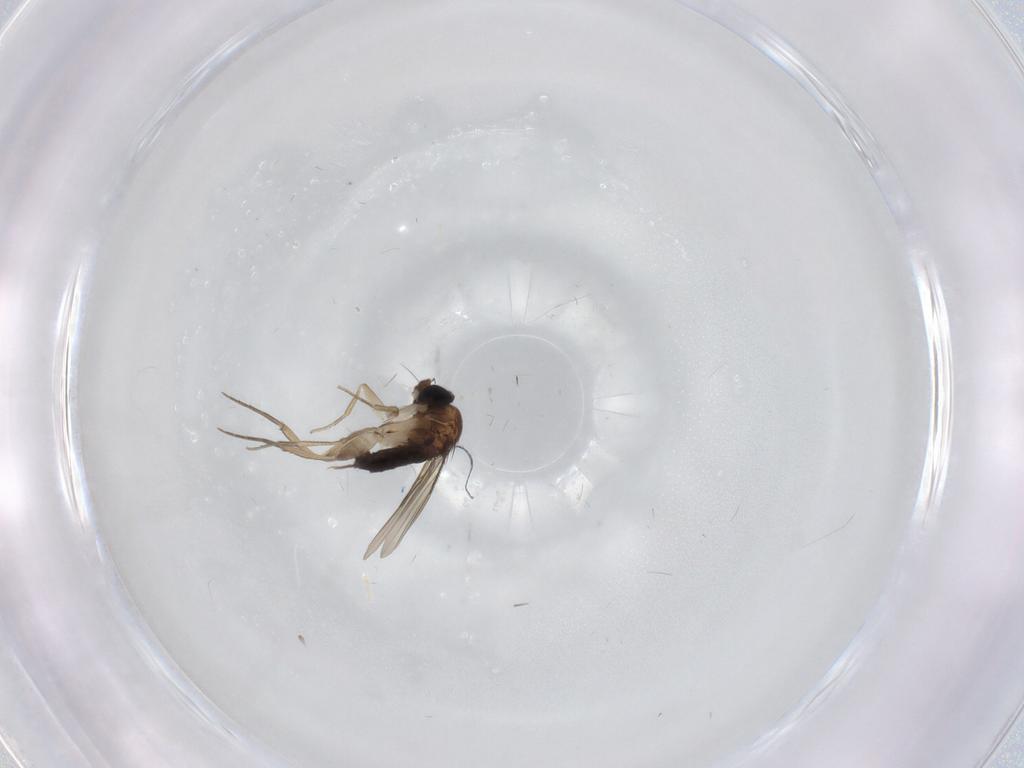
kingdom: Animalia
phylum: Arthropoda
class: Insecta
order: Diptera
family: Phoridae
